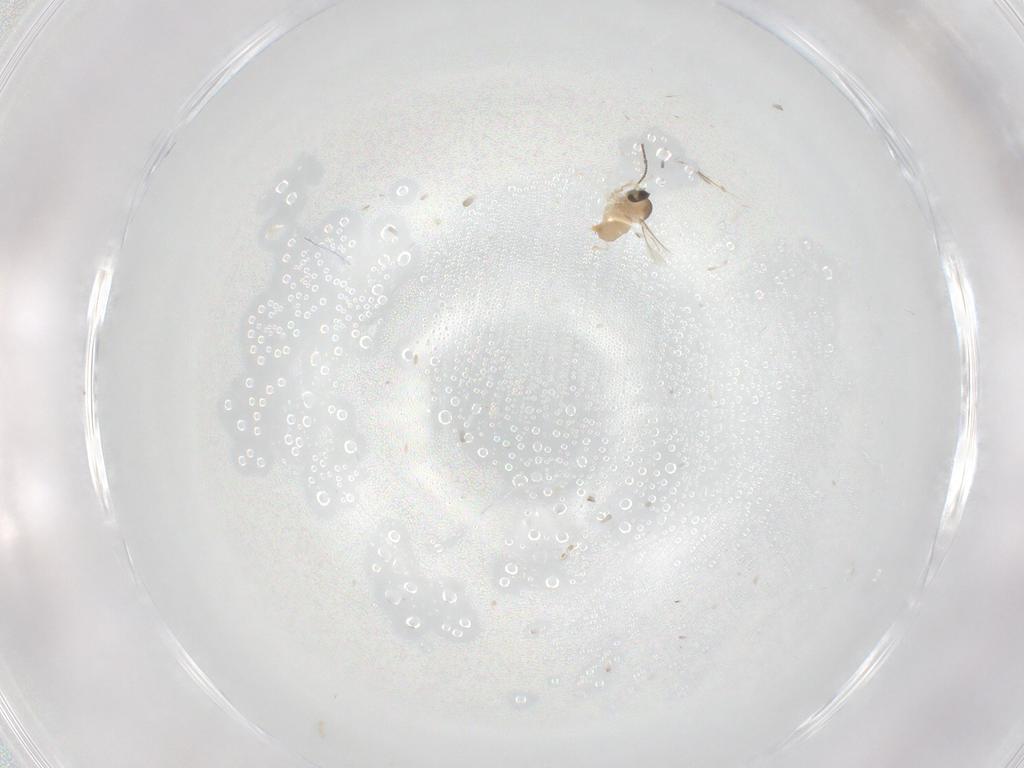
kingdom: Animalia
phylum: Arthropoda
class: Insecta
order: Diptera
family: Cecidomyiidae
